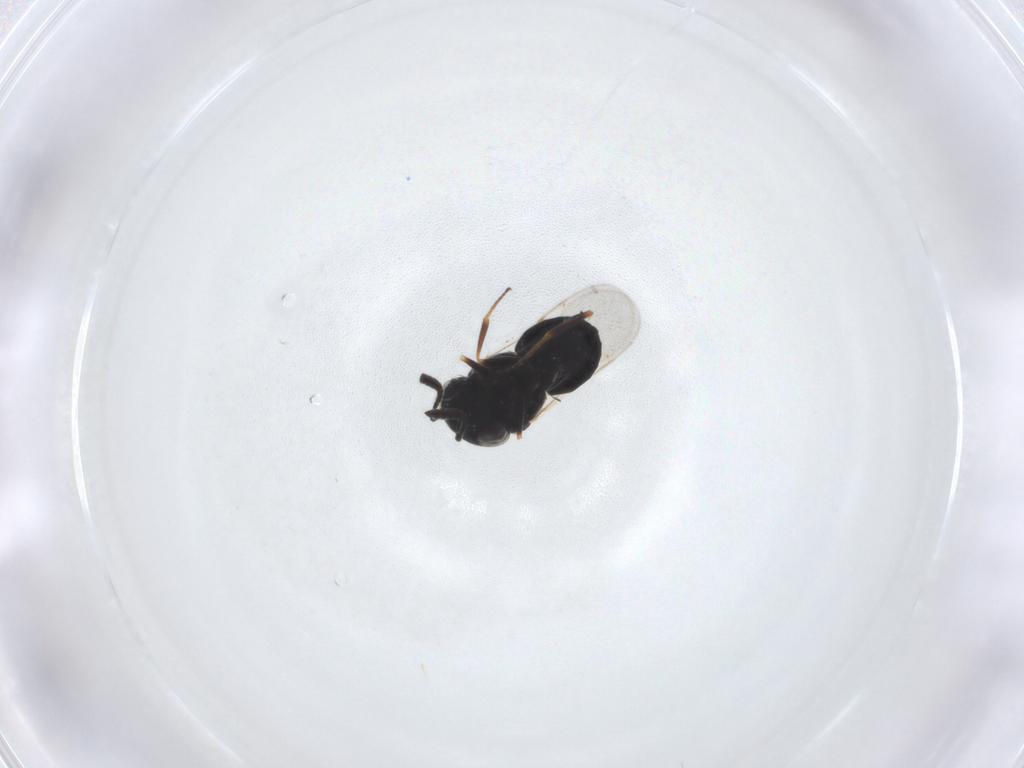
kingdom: Animalia
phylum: Arthropoda
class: Insecta
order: Hymenoptera
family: Scelionidae
